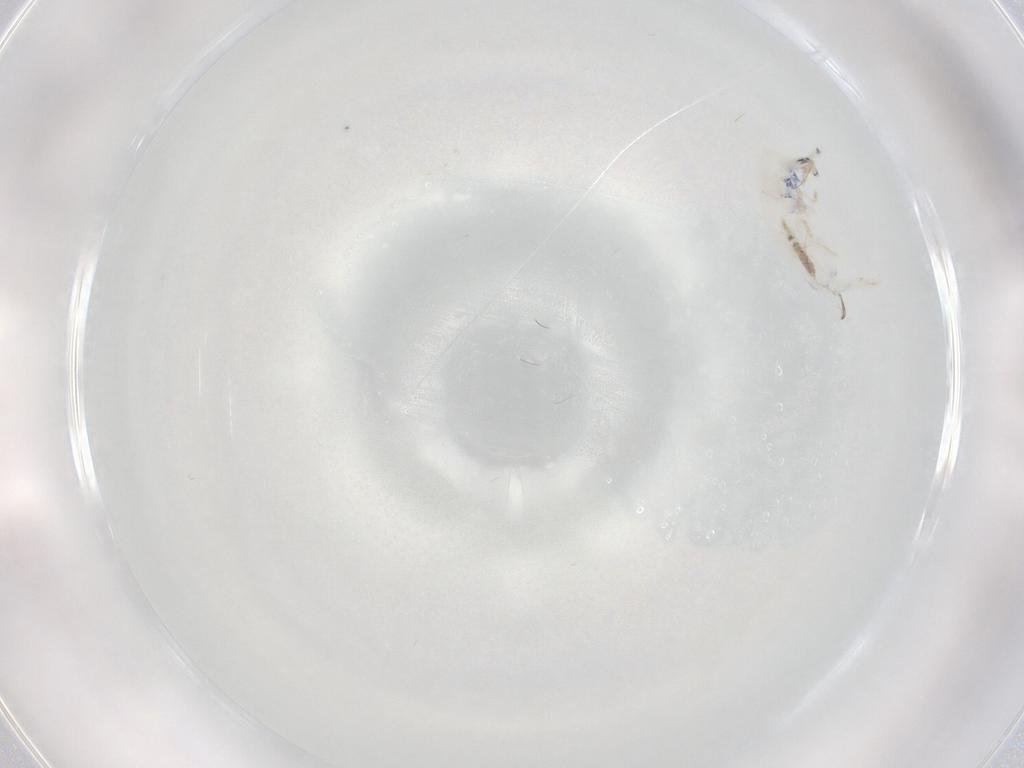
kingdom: Animalia
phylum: Arthropoda
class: Collembola
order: Entomobryomorpha
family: Entomobryidae
